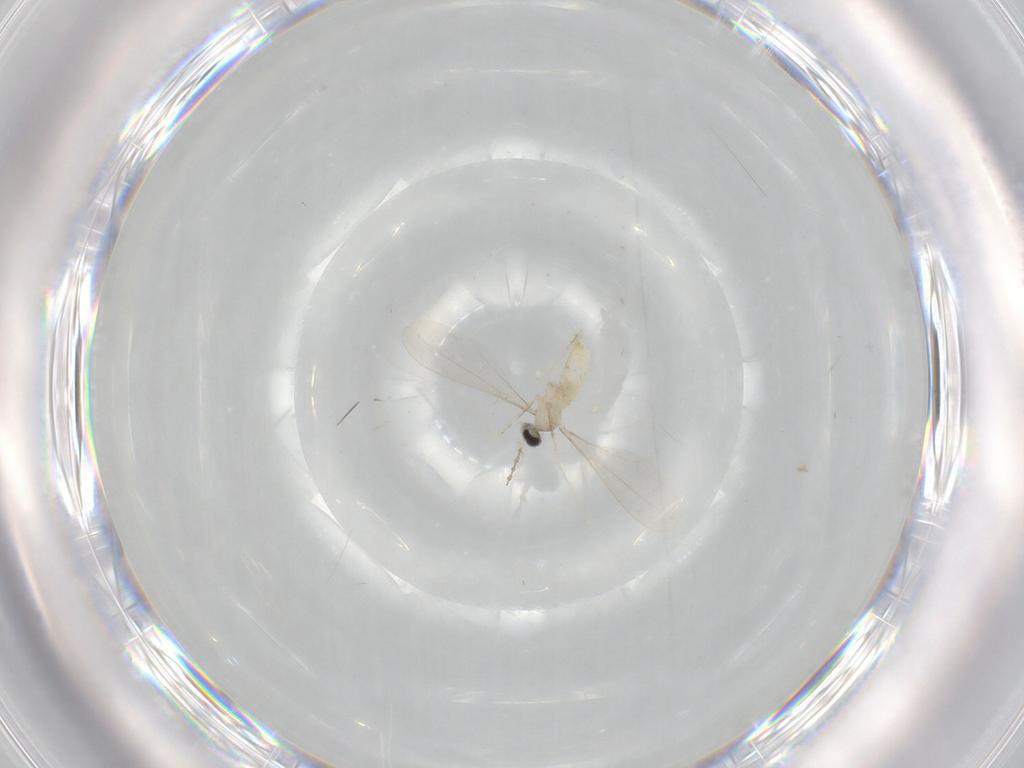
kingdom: Animalia
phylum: Arthropoda
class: Insecta
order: Diptera
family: Cecidomyiidae
